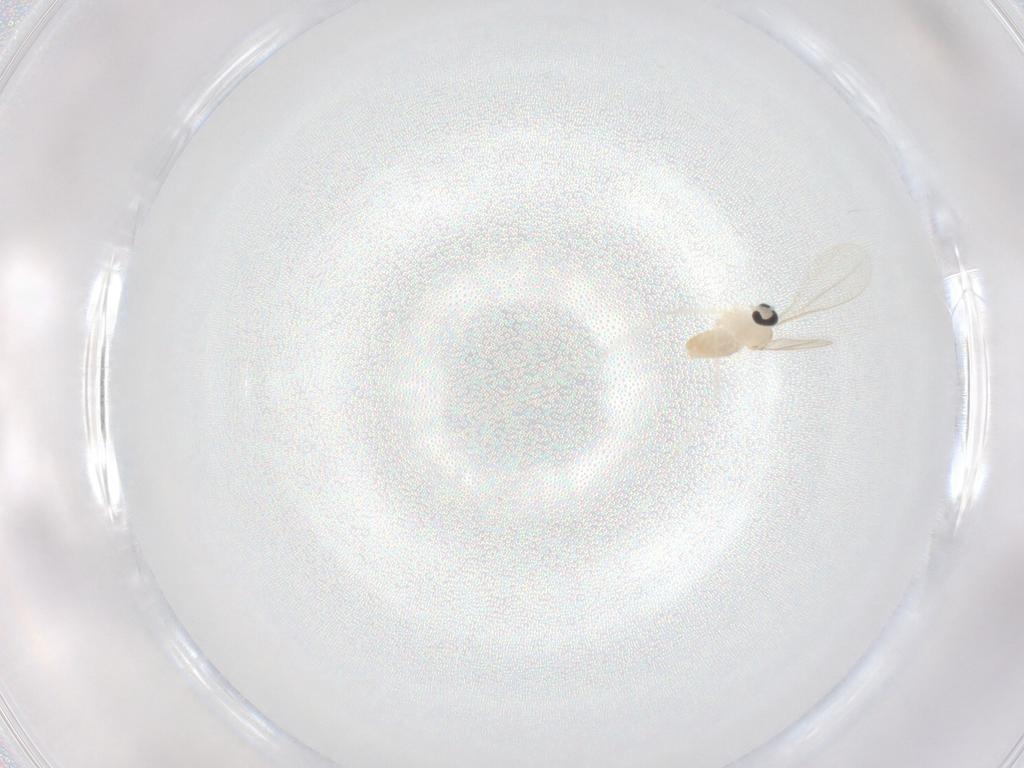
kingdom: Animalia
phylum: Arthropoda
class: Insecta
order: Diptera
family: Cecidomyiidae
